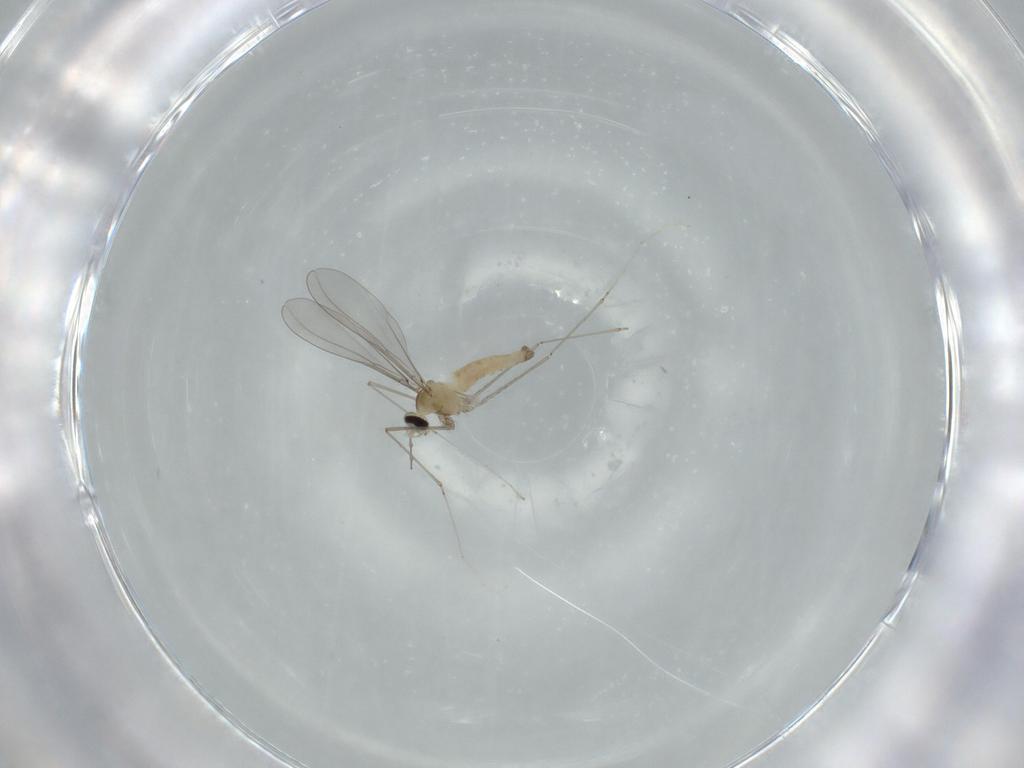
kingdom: Animalia
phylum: Arthropoda
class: Insecta
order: Diptera
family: Cecidomyiidae
